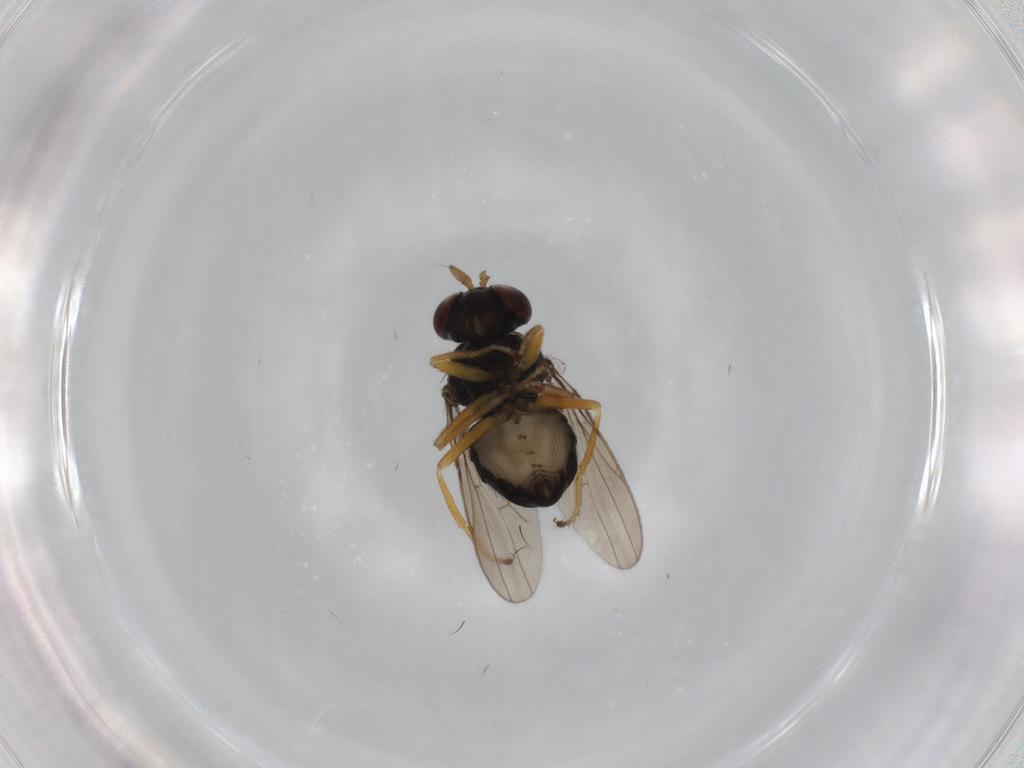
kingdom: Animalia
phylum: Arthropoda
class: Insecta
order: Diptera
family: Ephydridae
